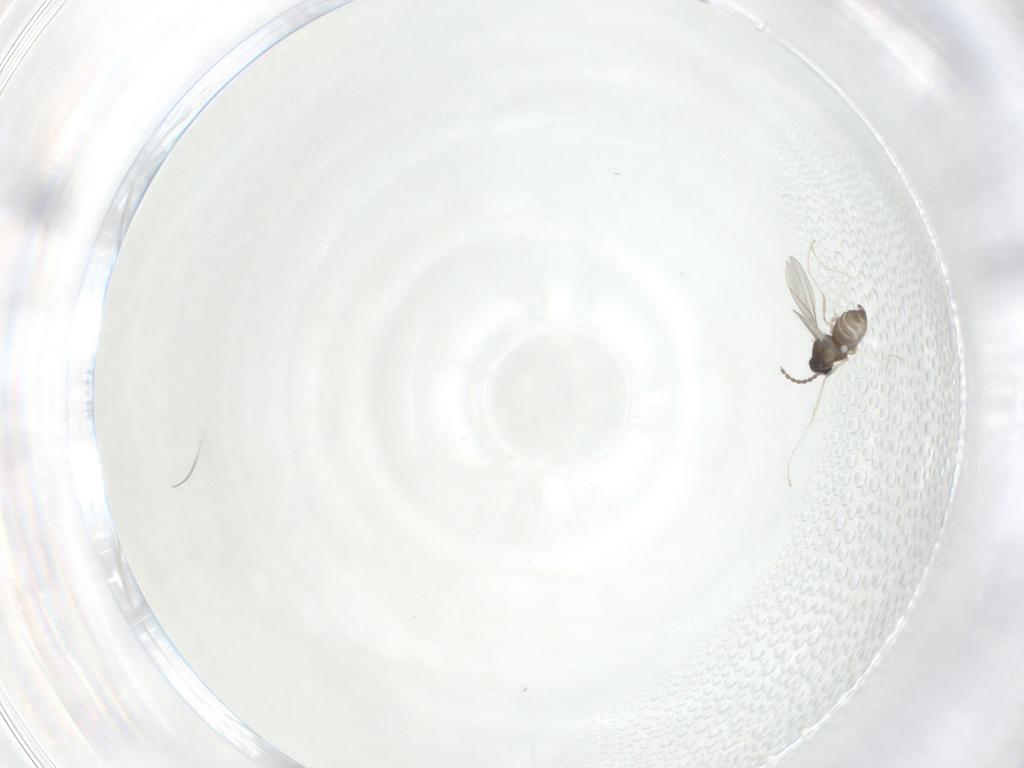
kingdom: Animalia
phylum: Arthropoda
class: Insecta
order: Diptera
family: Cecidomyiidae
